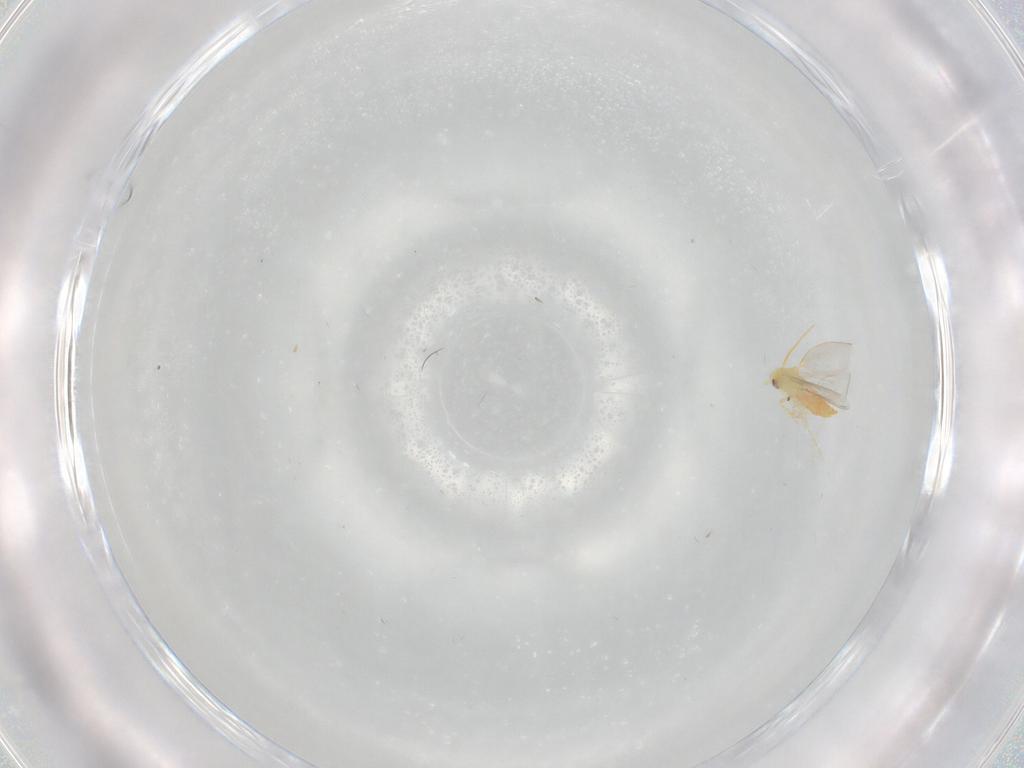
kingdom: Animalia
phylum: Arthropoda
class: Insecta
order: Hemiptera
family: Aleyrodidae
